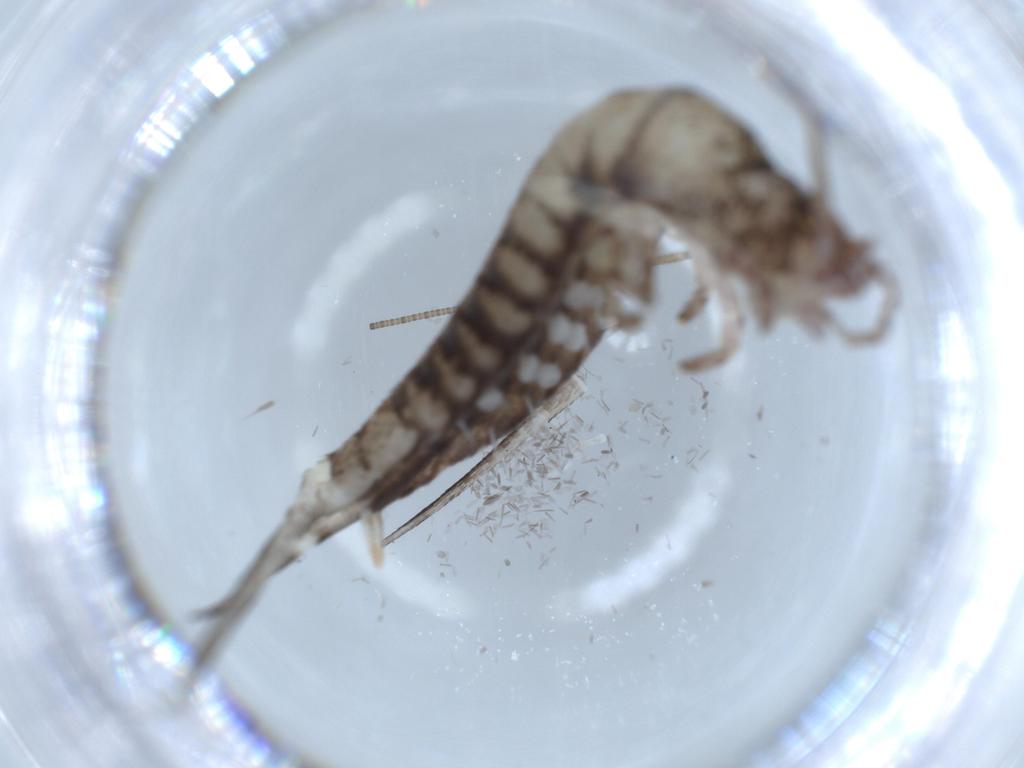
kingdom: Animalia
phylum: Arthropoda
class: Insecta
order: Archaeognatha
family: Machilidae
